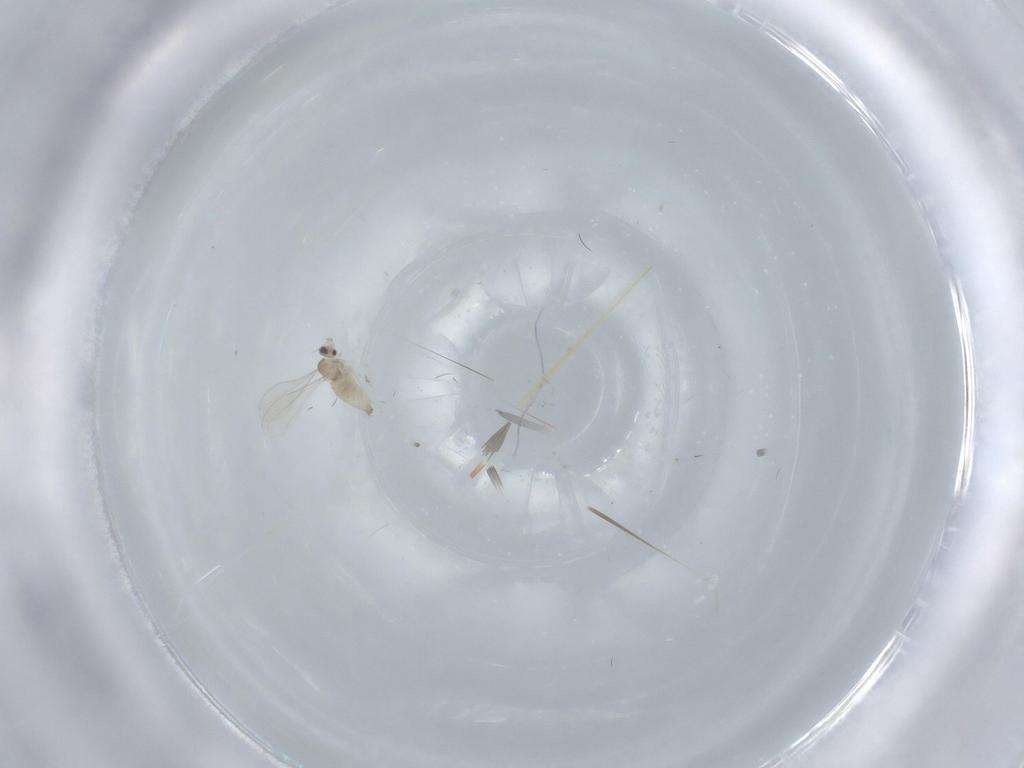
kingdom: Animalia
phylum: Arthropoda
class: Insecta
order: Diptera
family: Cecidomyiidae
